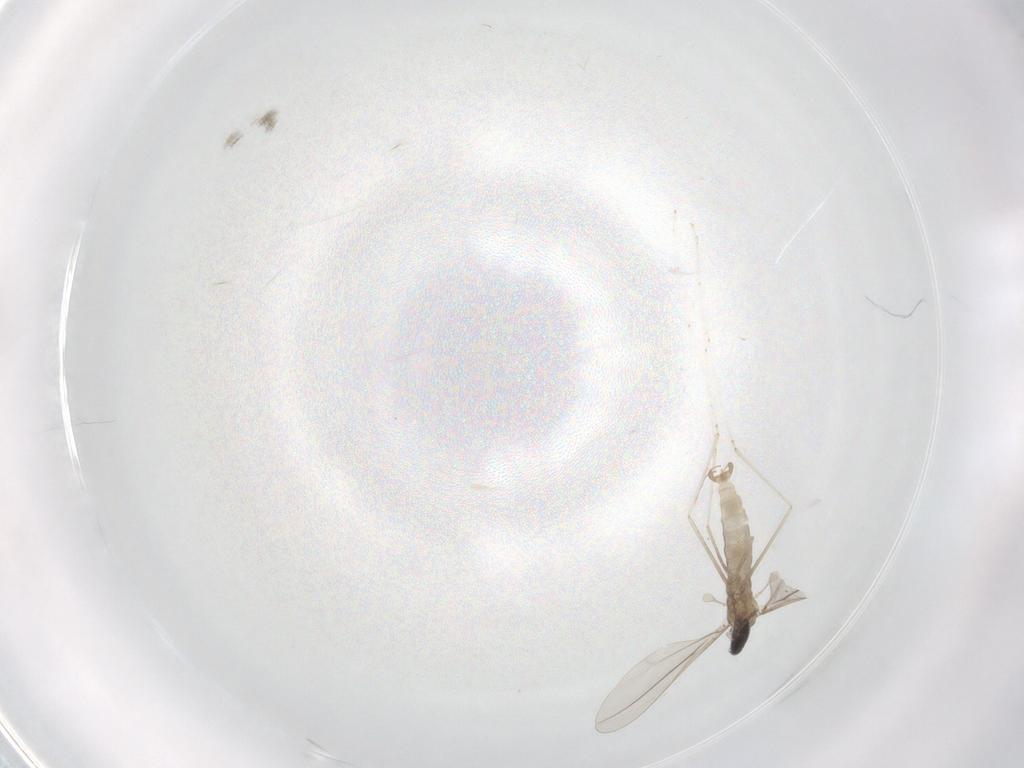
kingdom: Animalia
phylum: Arthropoda
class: Insecta
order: Diptera
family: Cecidomyiidae
